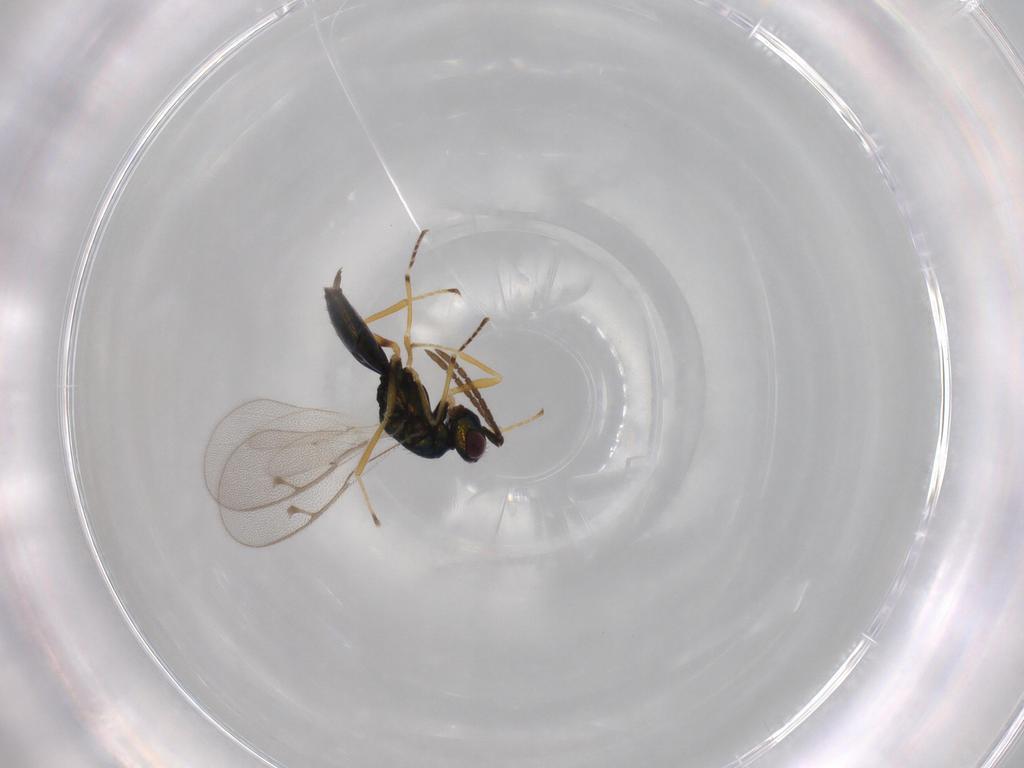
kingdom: Animalia
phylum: Arthropoda
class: Insecta
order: Hymenoptera
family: Pteromalidae
